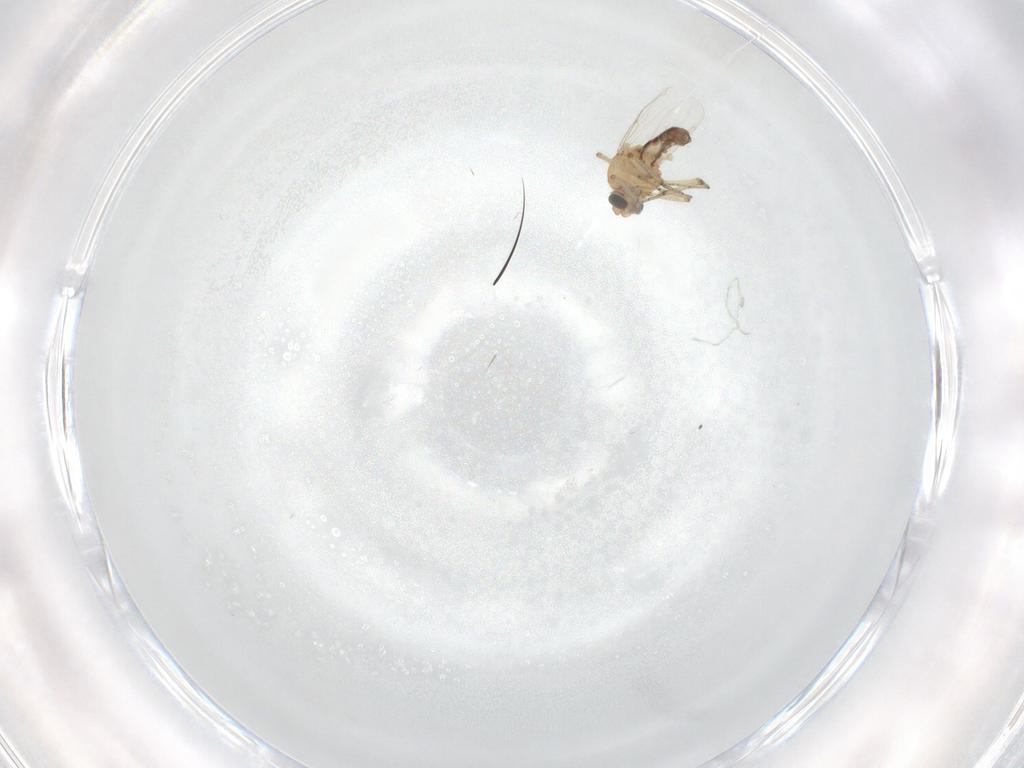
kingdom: Animalia
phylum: Arthropoda
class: Insecta
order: Diptera
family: Ceratopogonidae
